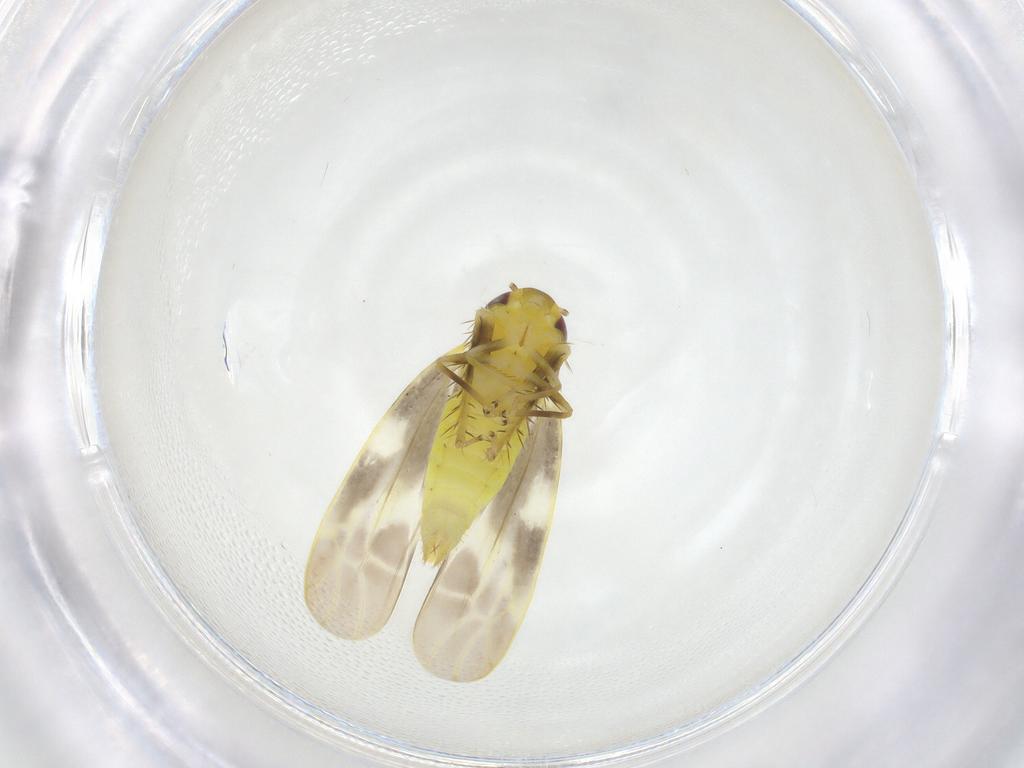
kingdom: Animalia
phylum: Arthropoda
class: Insecta
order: Hemiptera
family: Cicadellidae
